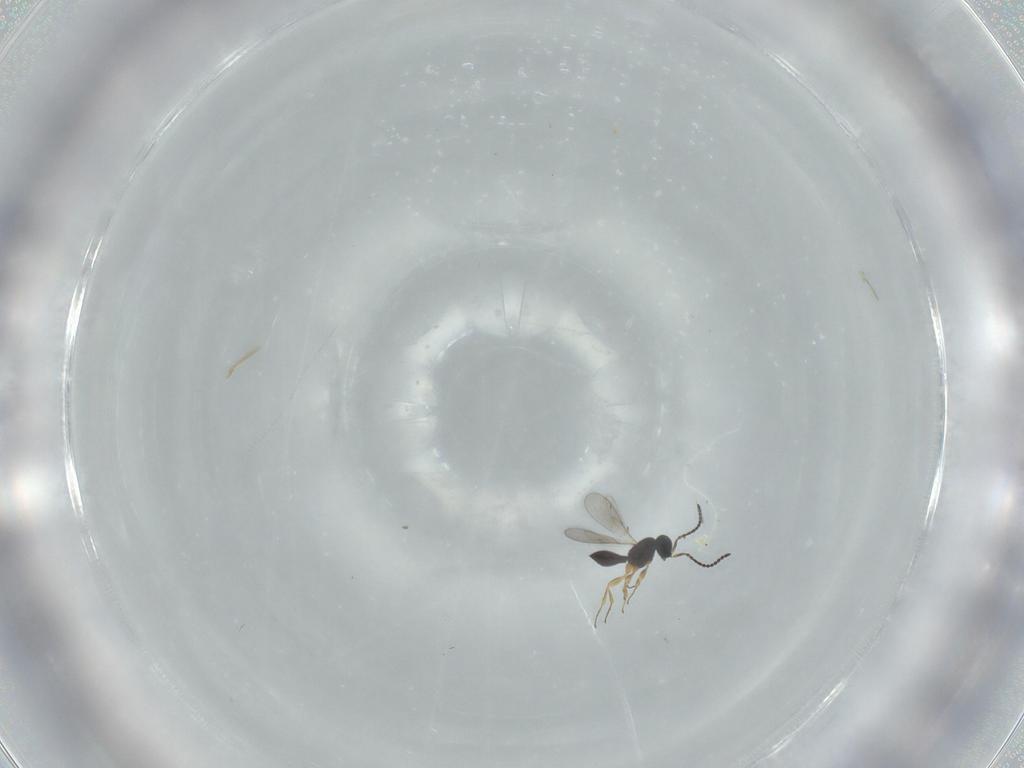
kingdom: Animalia
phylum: Arthropoda
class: Insecta
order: Hymenoptera
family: Scelionidae
